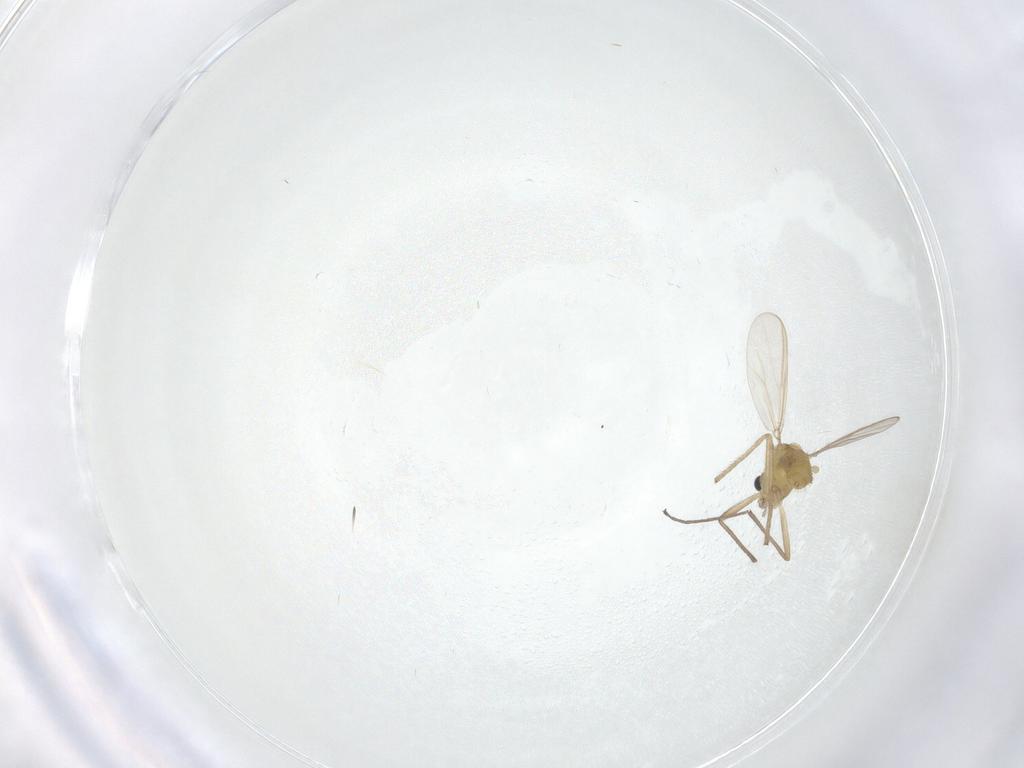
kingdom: Animalia
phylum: Arthropoda
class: Insecta
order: Diptera
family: Chironomidae
